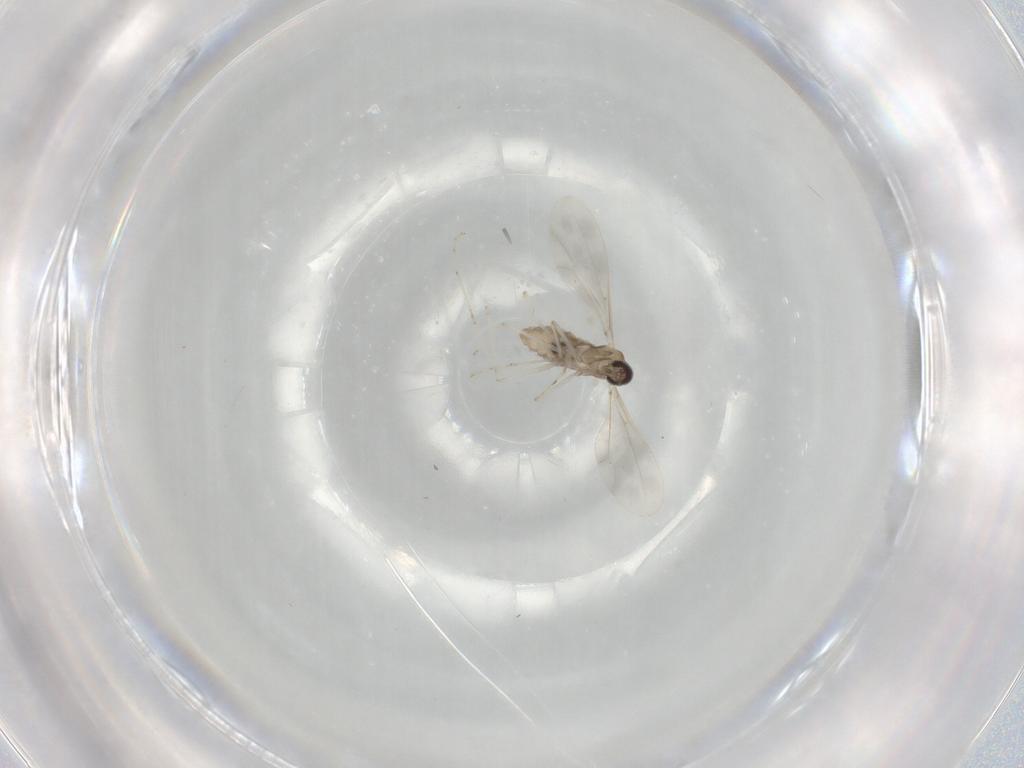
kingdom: Animalia
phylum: Arthropoda
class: Insecta
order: Diptera
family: Cecidomyiidae
